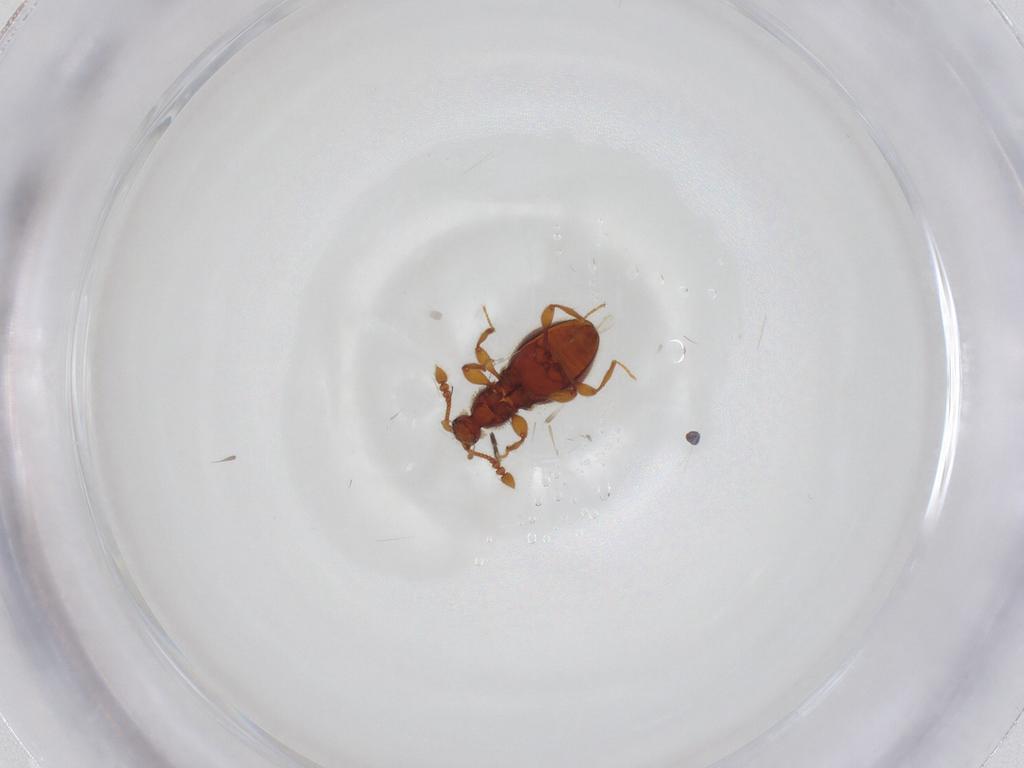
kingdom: Animalia
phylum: Arthropoda
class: Insecta
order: Coleoptera
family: Staphylinidae
